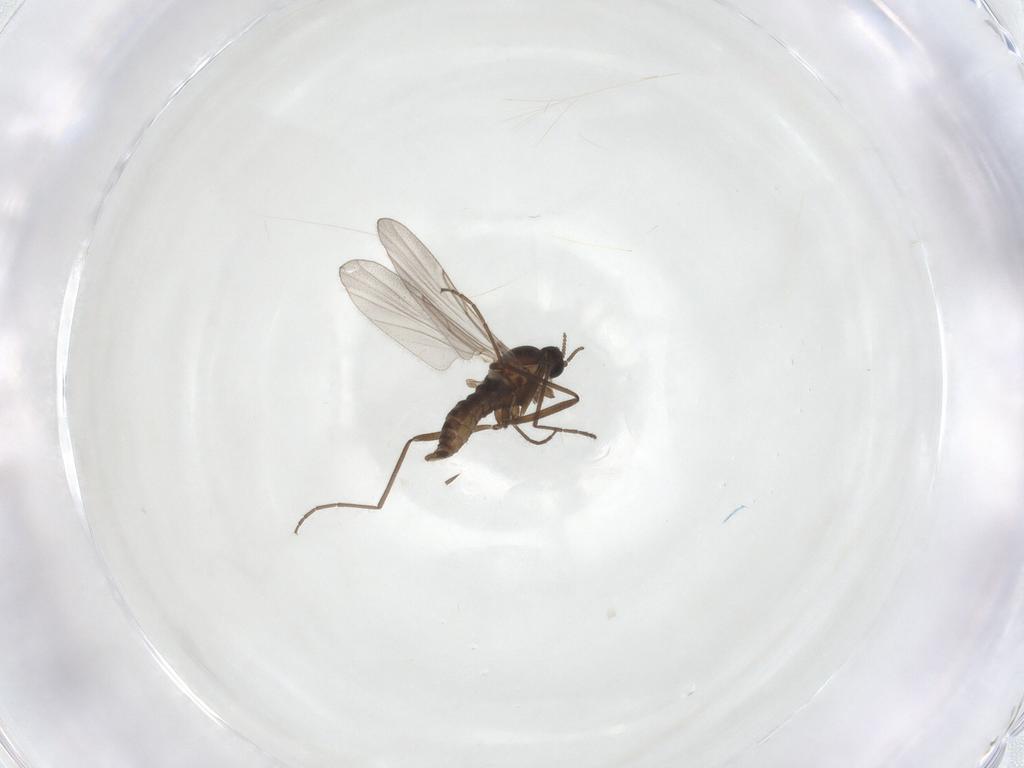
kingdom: Animalia
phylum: Arthropoda
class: Insecta
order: Diptera
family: Cecidomyiidae
